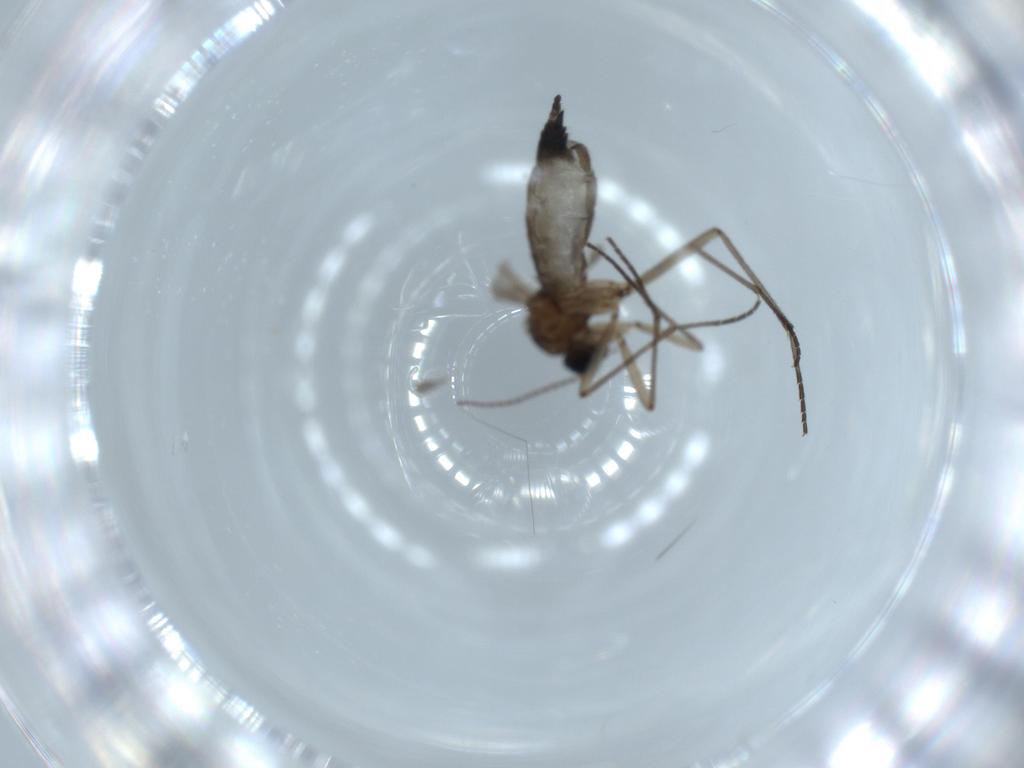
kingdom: Animalia
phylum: Arthropoda
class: Insecta
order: Diptera
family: Sciaridae
